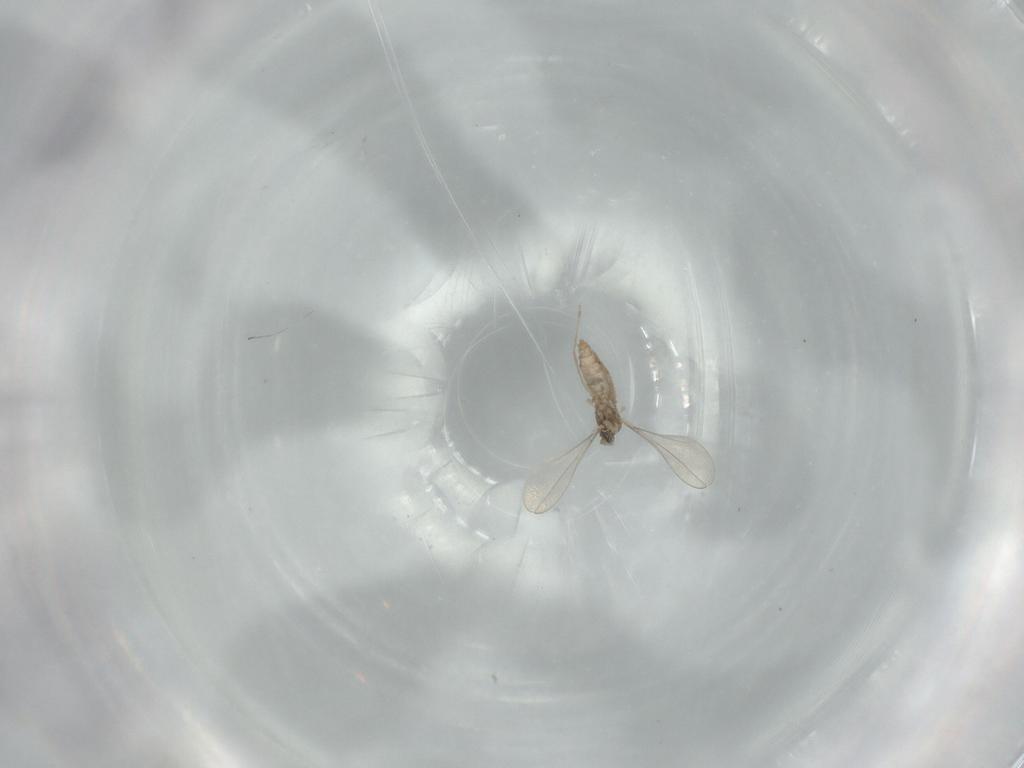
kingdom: Animalia
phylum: Arthropoda
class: Insecta
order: Diptera
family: Cecidomyiidae
